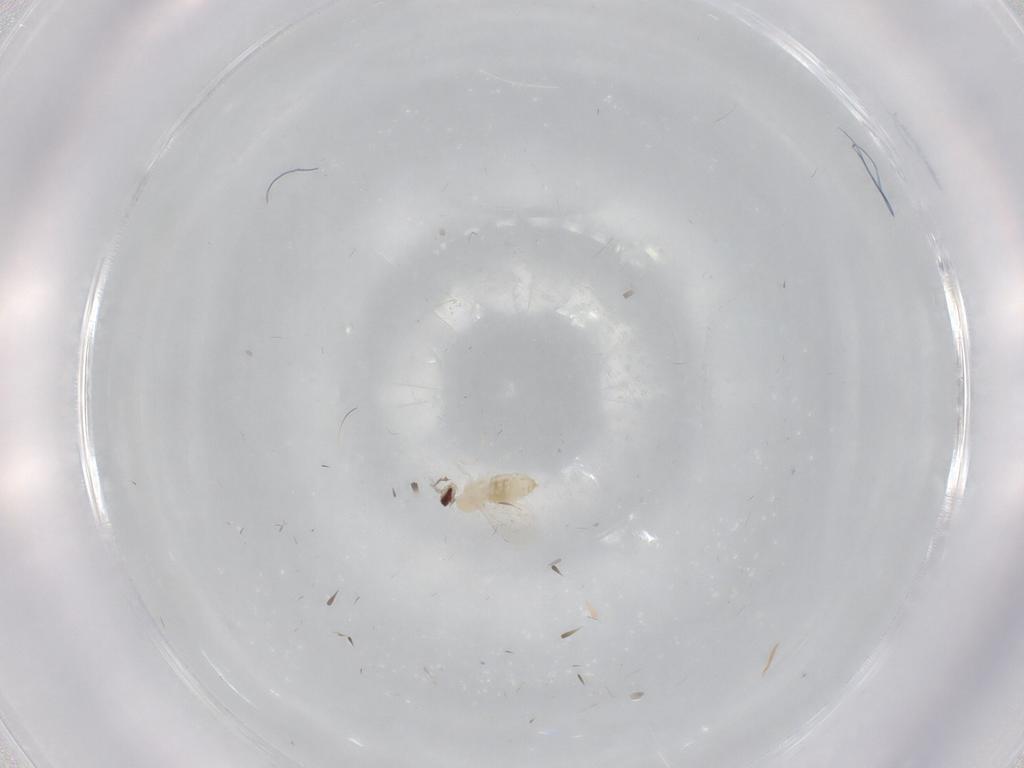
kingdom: Animalia
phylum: Arthropoda
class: Insecta
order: Diptera
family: Cecidomyiidae
